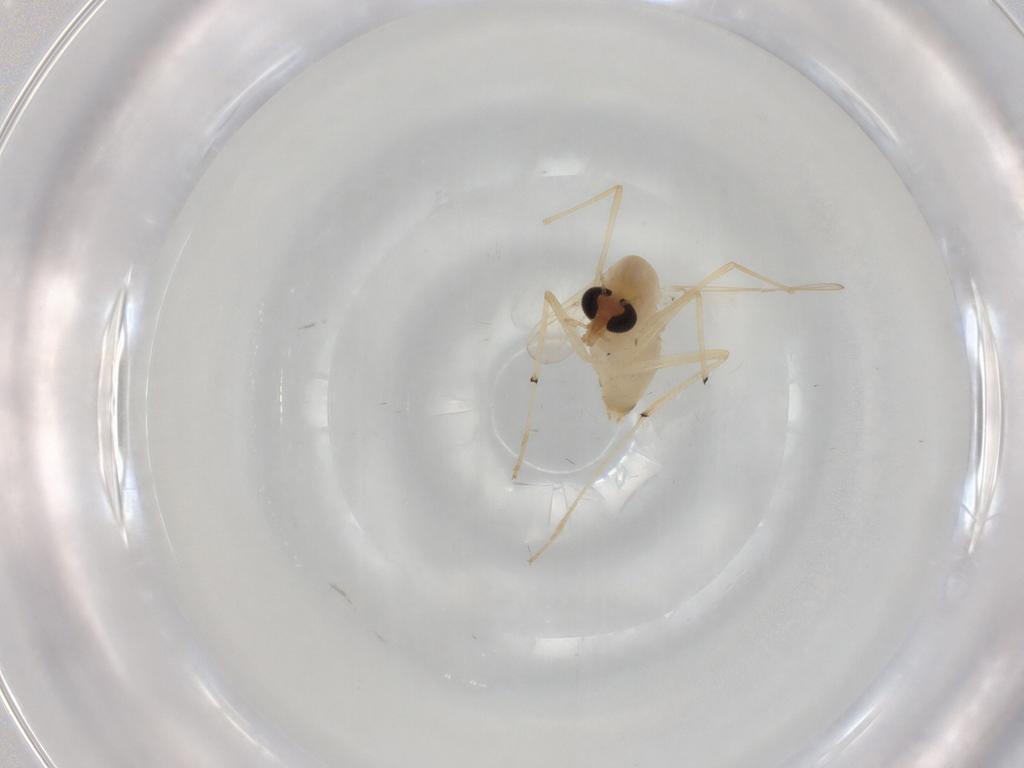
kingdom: Animalia
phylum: Arthropoda
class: Insecta
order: Diptera
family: Chironomidae
